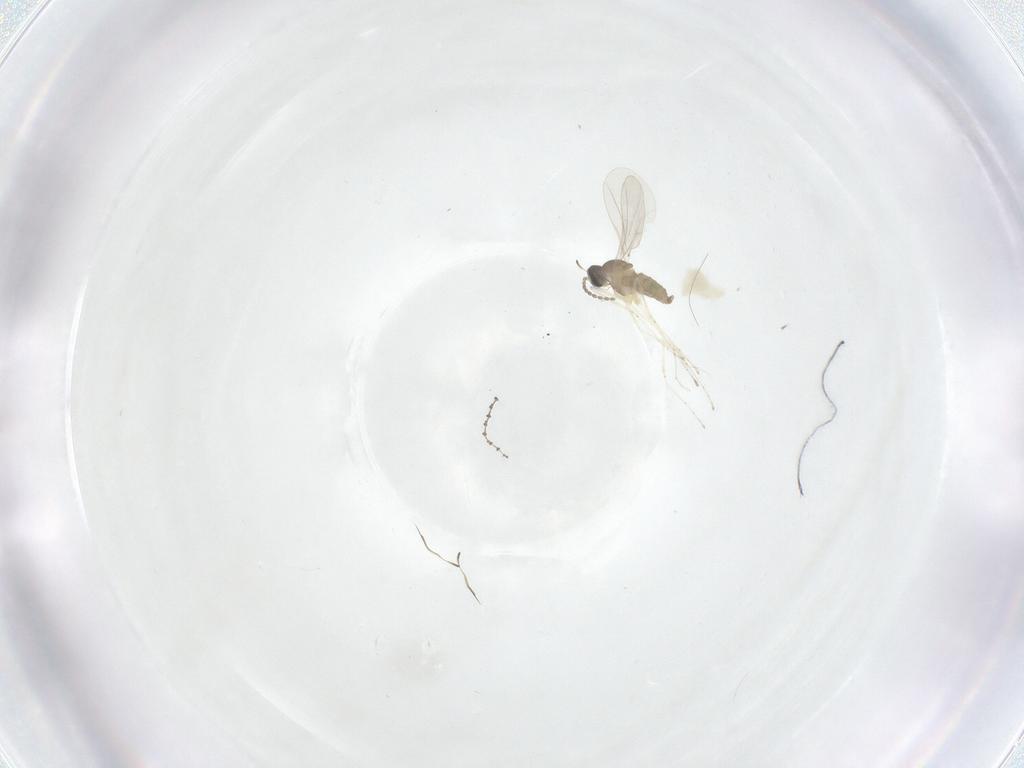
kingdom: Animalia
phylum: Arthropoda
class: Insecta
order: Diptera
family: Cecidomyiidae
